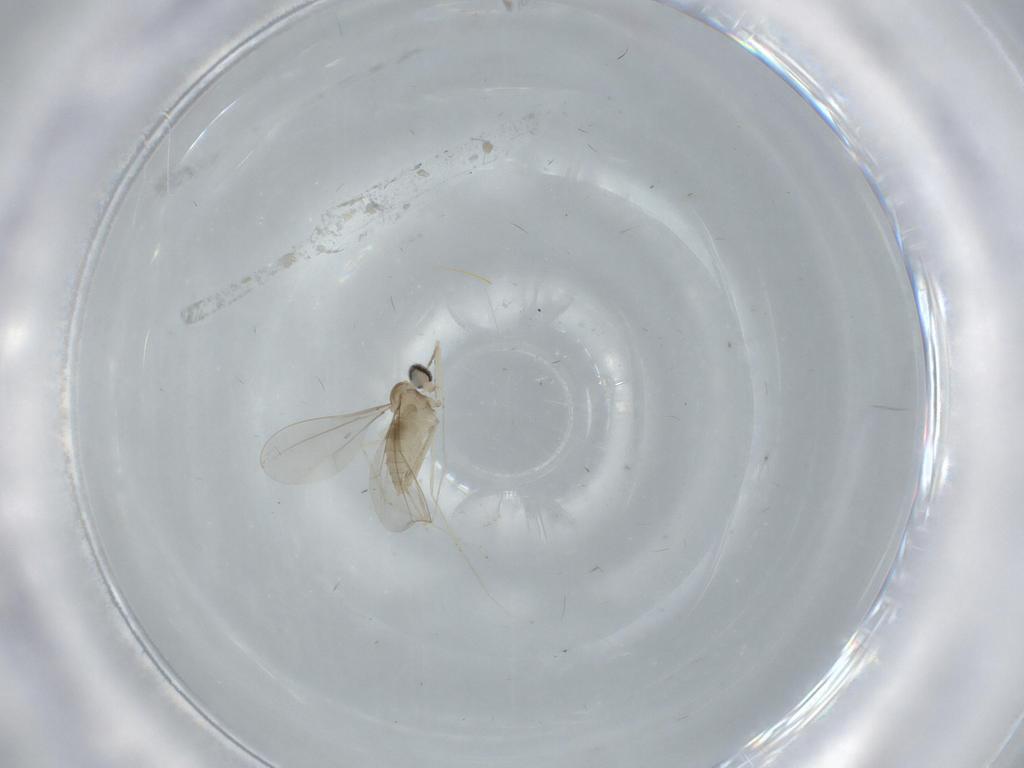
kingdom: Animalia
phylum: Arthropoda
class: Insecta
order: Diptera
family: Cecidomyiidae
